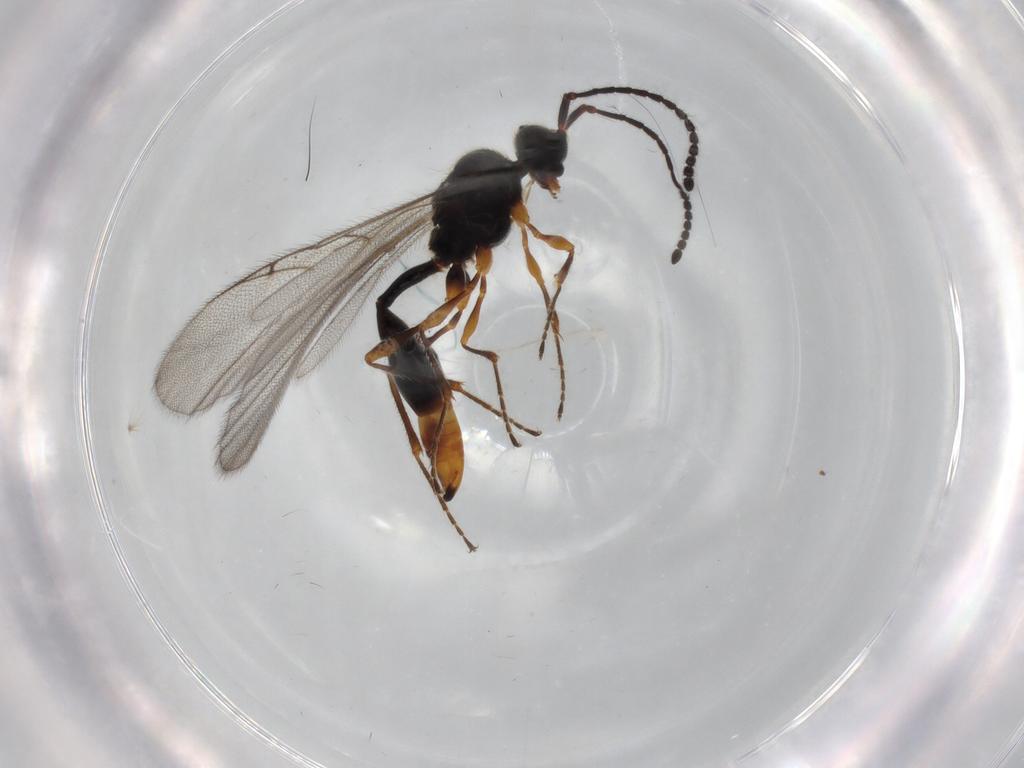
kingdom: Animalia
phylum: Arthropoda
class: Insecta
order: Hymenoptera
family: Diapriidae
